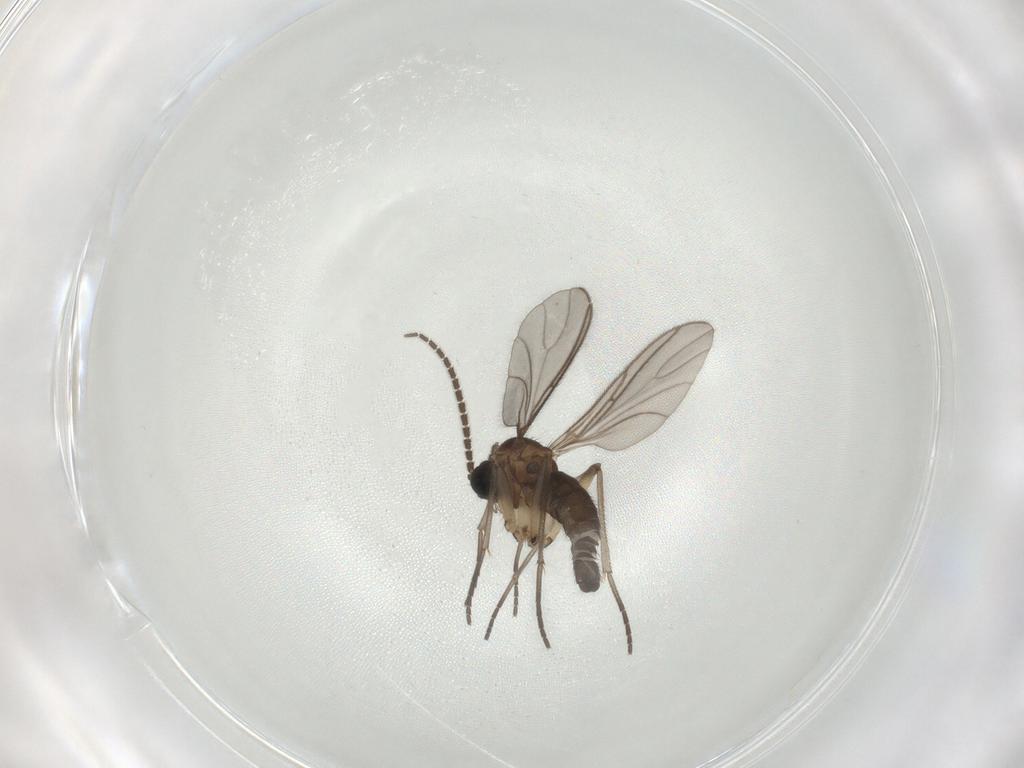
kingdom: Animalia
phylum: Arthropoda
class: Insecta
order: Diptera
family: Sciaridae
